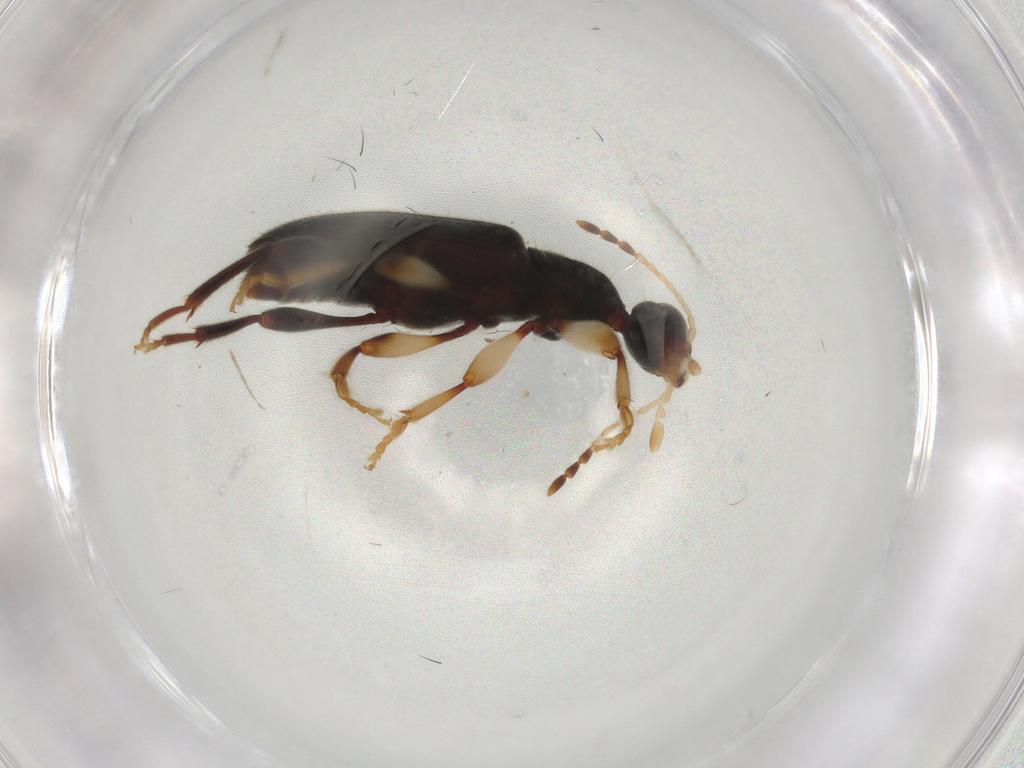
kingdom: Animalia
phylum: Arthropoda
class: Insecta
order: Coleoptera
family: Anthicidae
